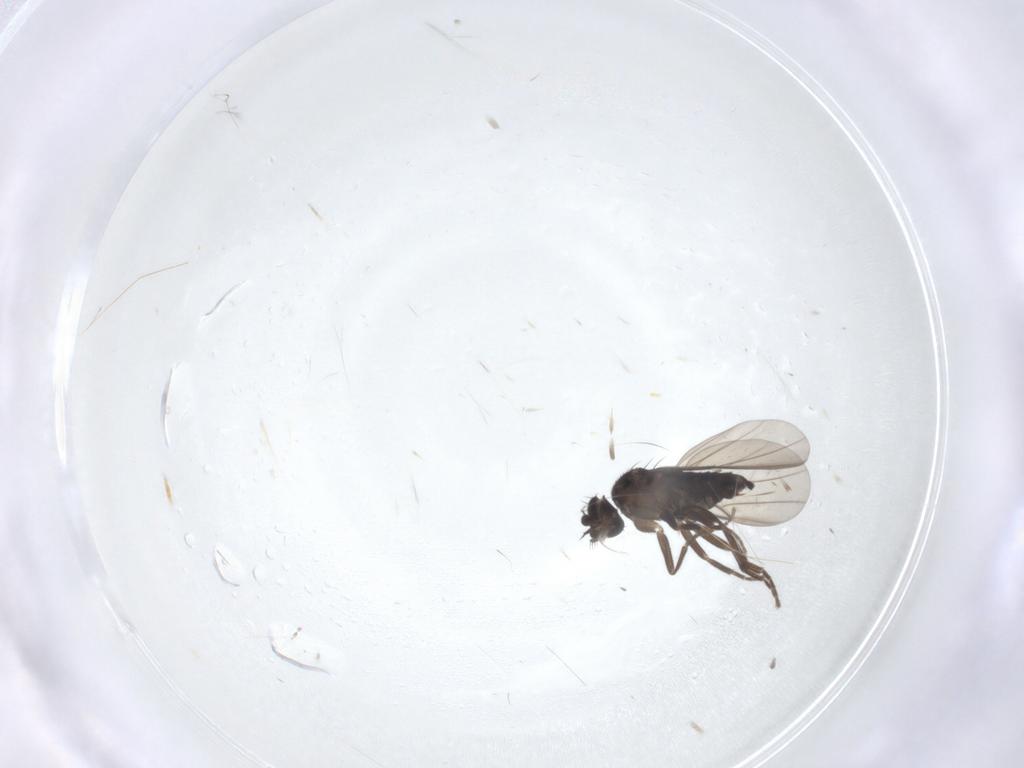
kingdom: Animalia
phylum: Arthropoda
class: Insecta
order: Diptera
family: Cecidomyiidae
